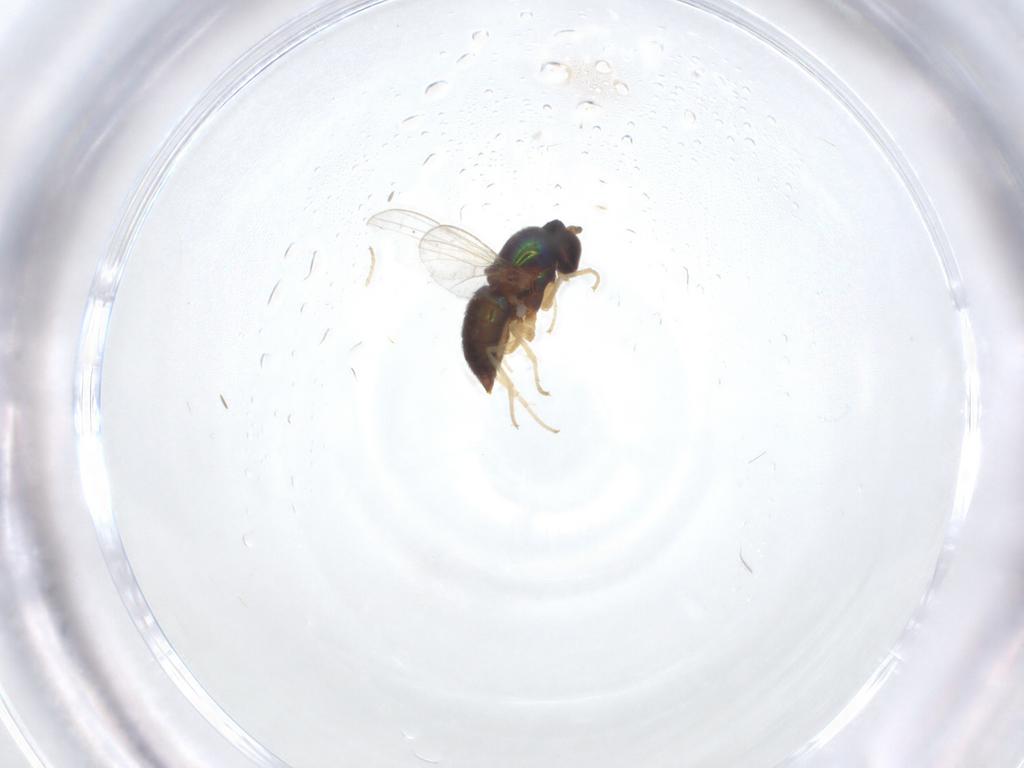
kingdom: Animalia
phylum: Arthropoda
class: Insecta
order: Diptera
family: Dolichopodidae
